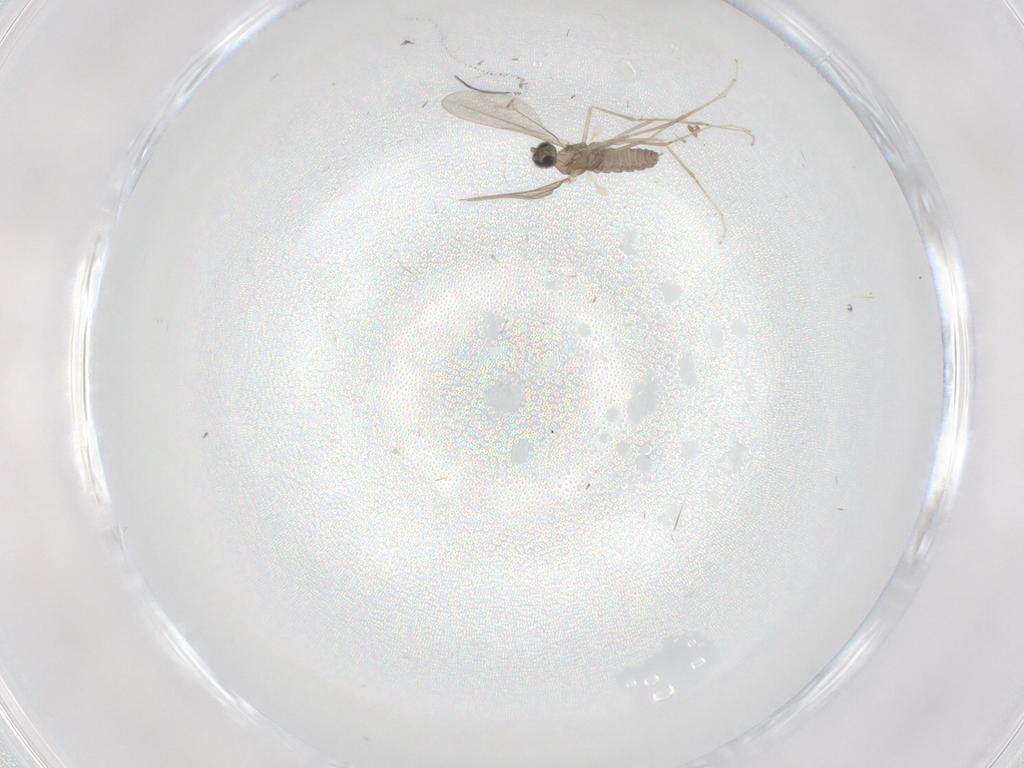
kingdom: Animalia
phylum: Arthropoda
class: Insecta
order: Diptera
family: Cecidomyiidae
